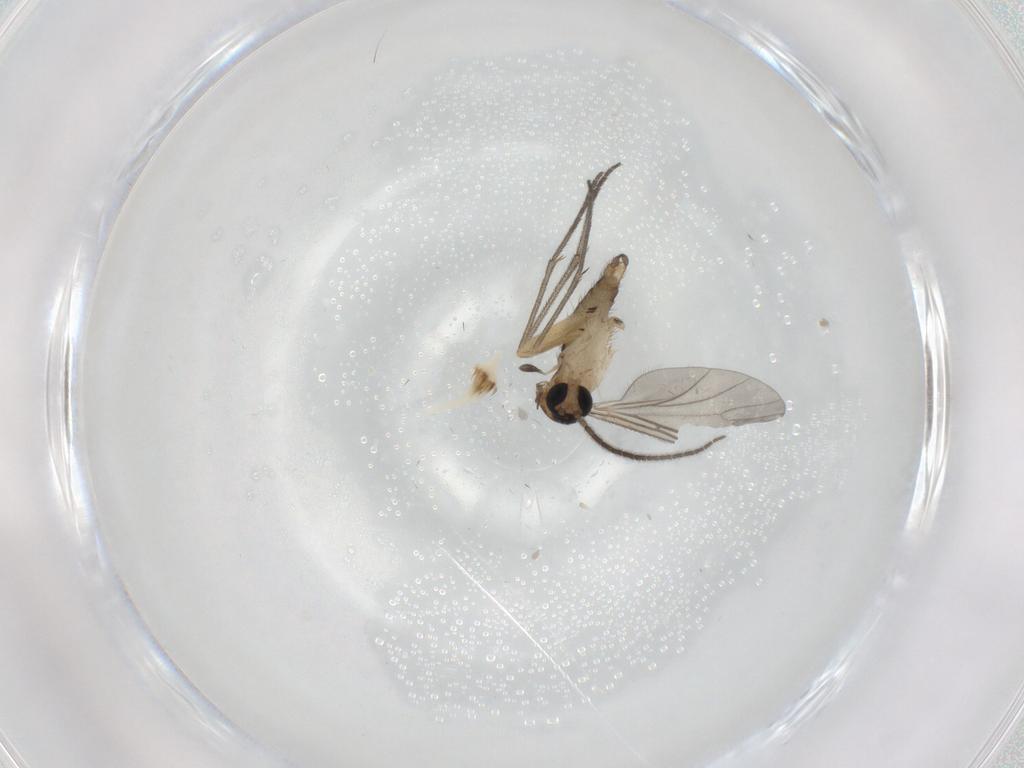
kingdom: Animalia
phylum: Arthropoda
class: Insecta
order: Diptera
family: Sciaridae
